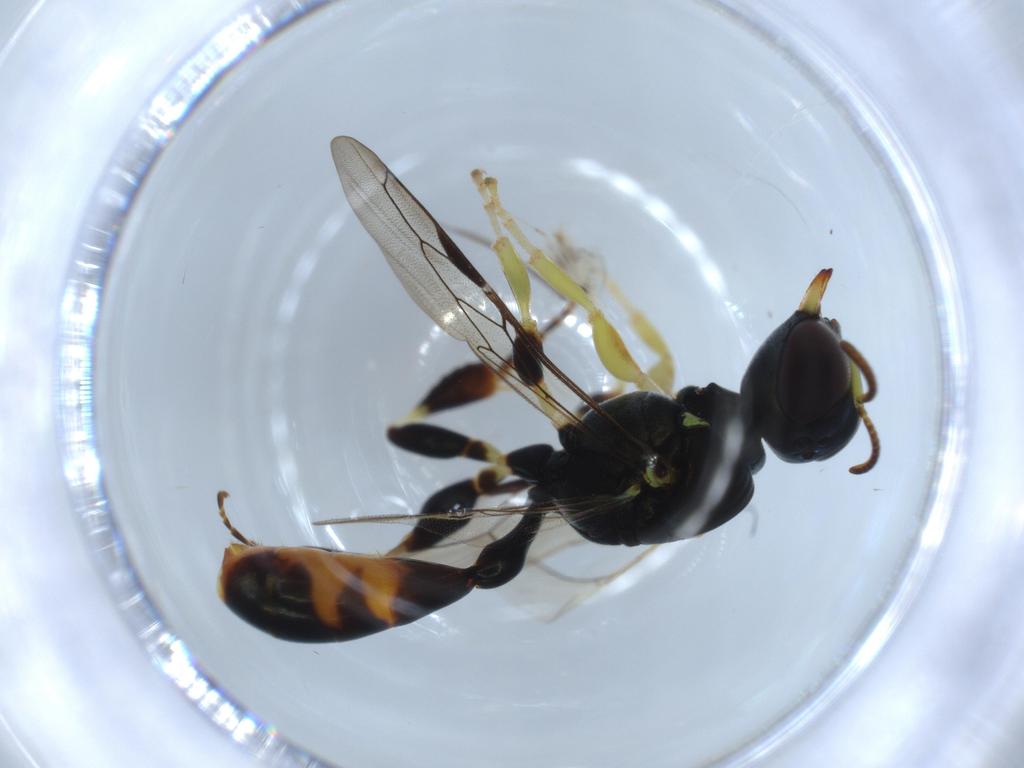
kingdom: Animalia
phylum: Arthropoda
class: Insecta
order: Hymenoptera
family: Crabronidae
